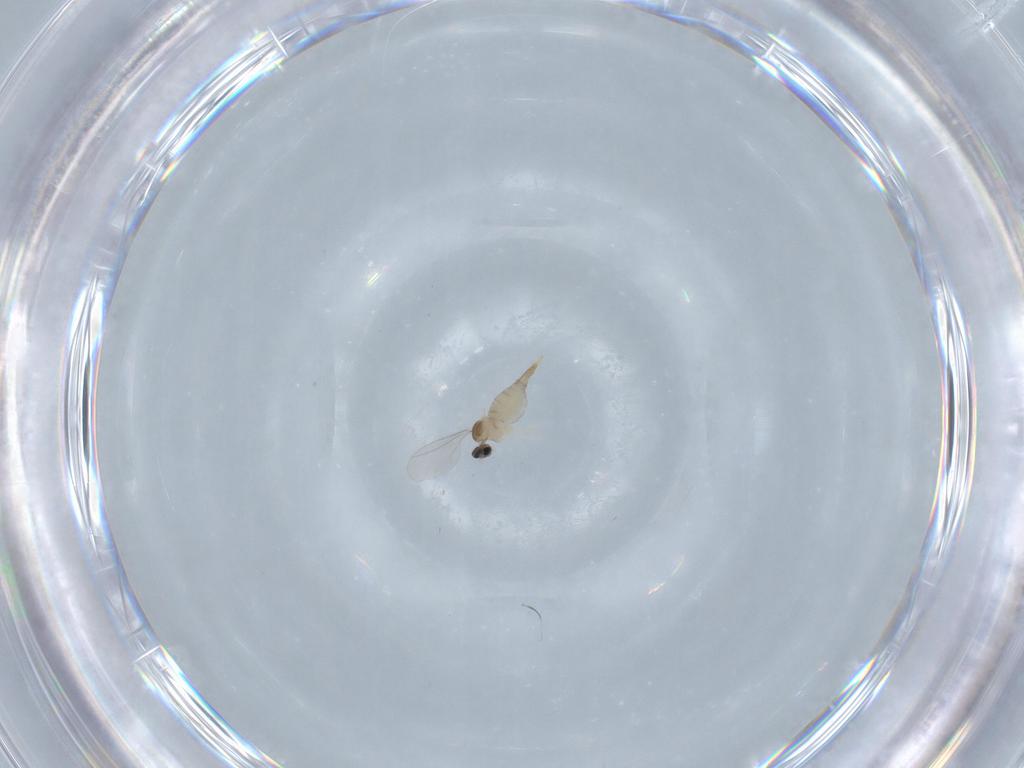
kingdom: Animalia
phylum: Arthropoda
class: Insecta
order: Diptera
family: Cecidomyiidae
